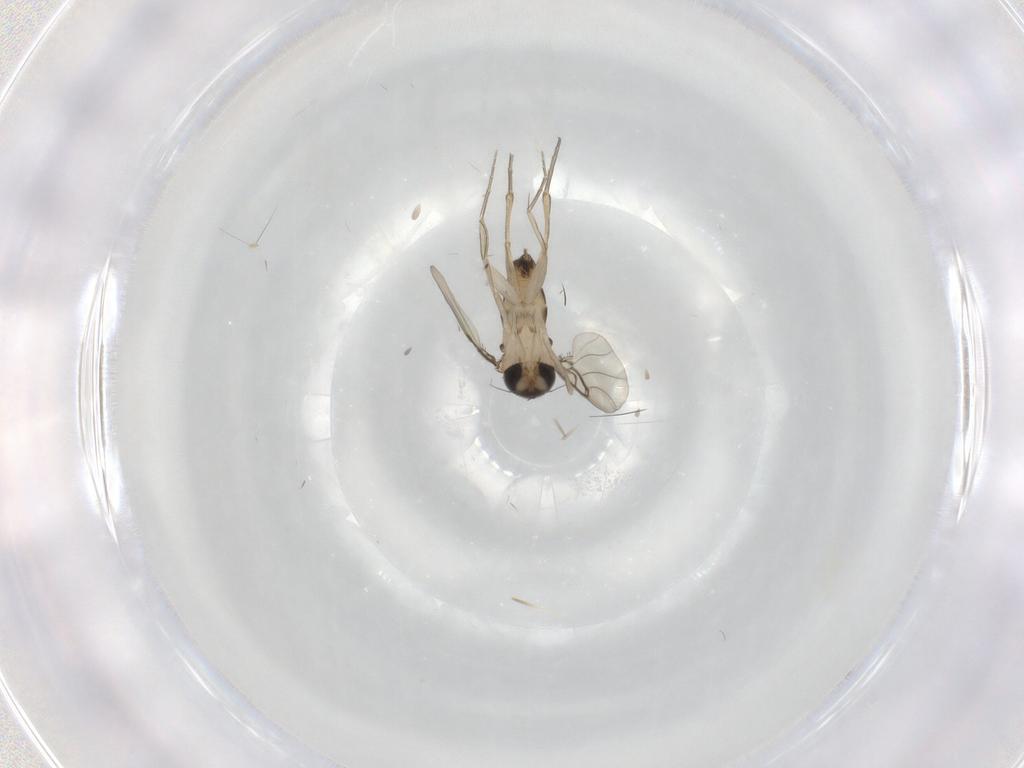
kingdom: Animalia
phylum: Arthropoda
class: Insecta
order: Diptera
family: Phoridae
